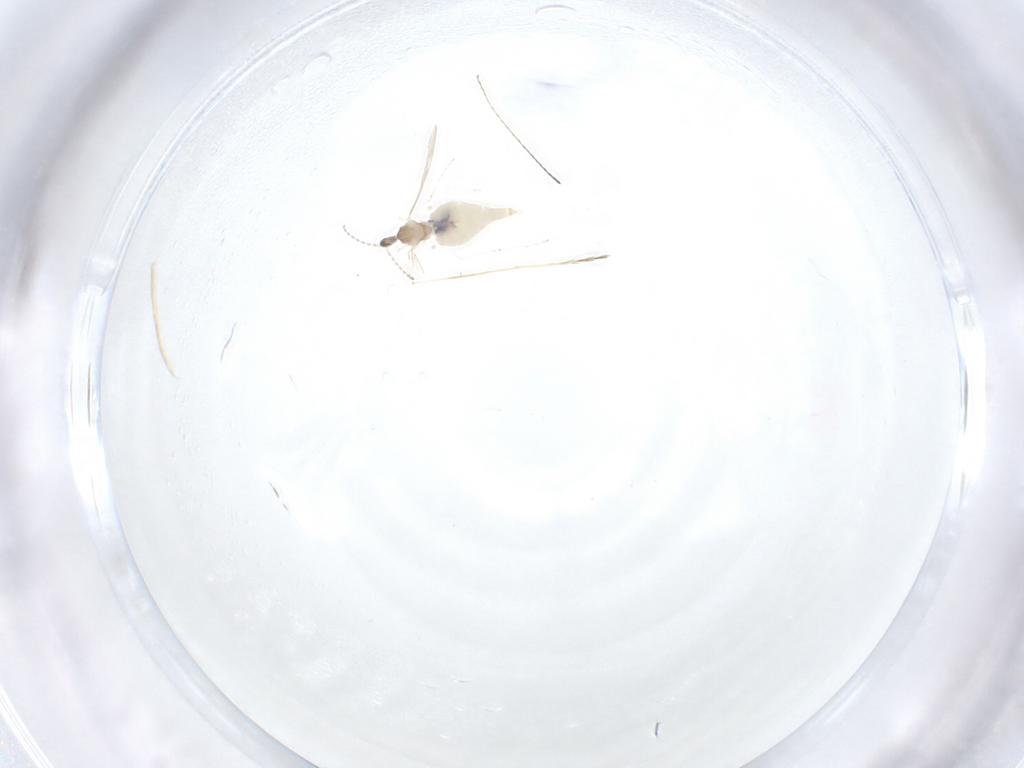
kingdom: Animalia
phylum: Arthropoda
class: Insecta
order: Diptera
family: Cecidomyiidae
